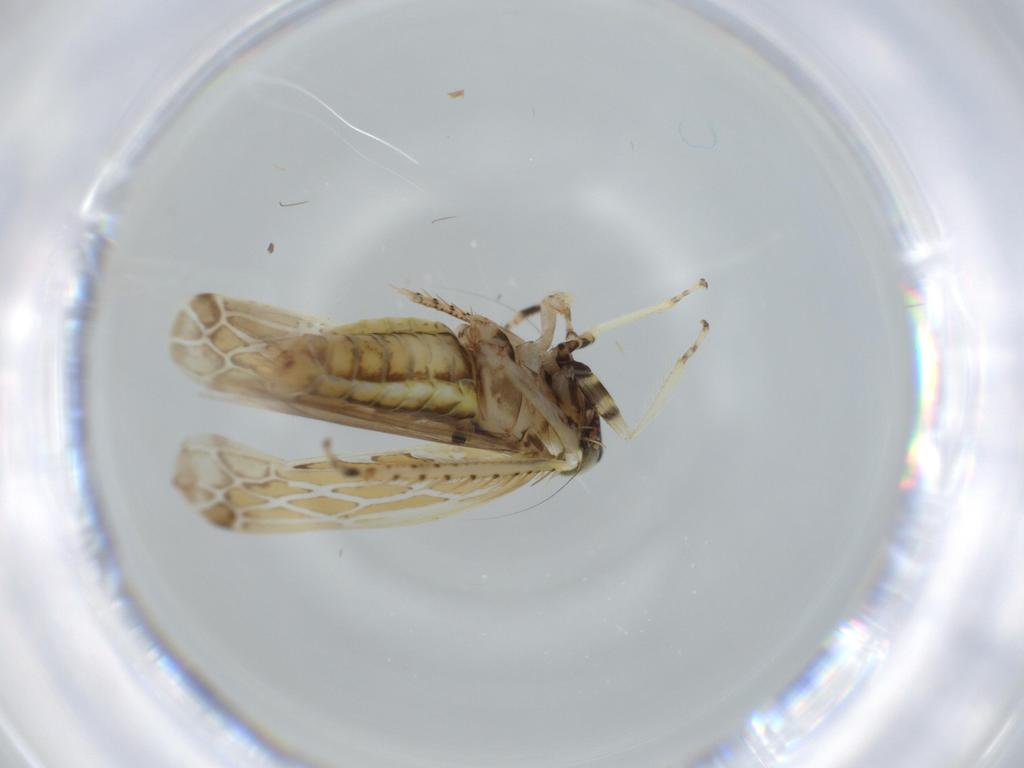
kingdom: Animalia
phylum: Arthropoda
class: Insecta
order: Hemiptera
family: Cicadellidae
